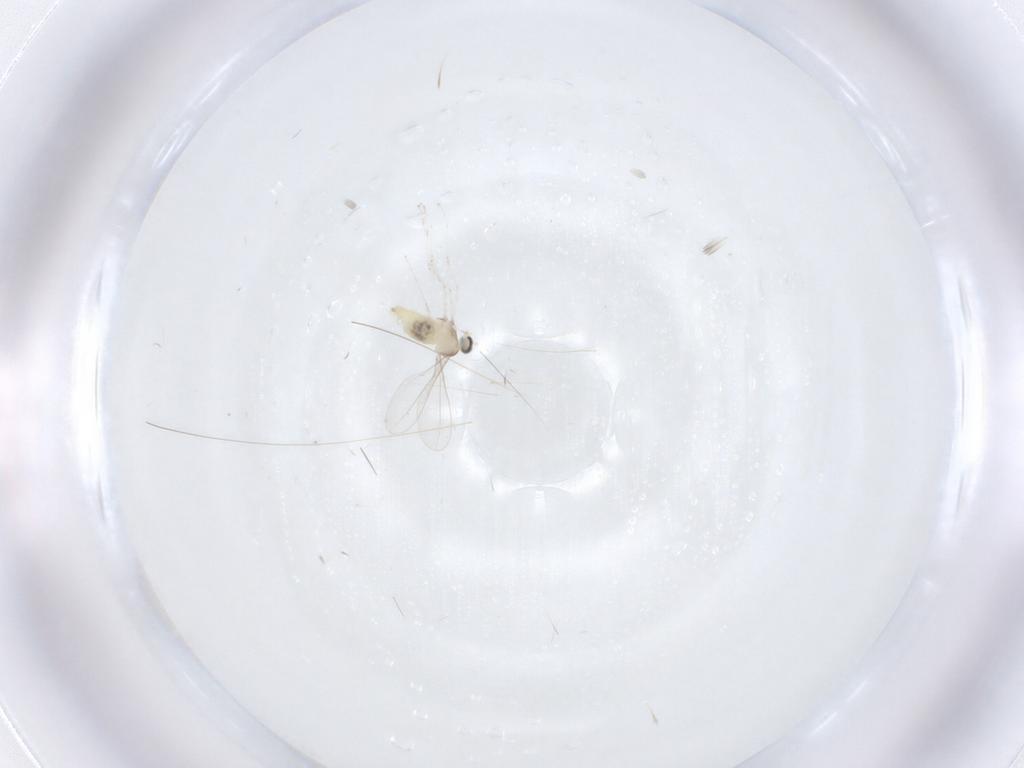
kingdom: Animalia
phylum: Arthropoda
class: Insecta
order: Diptera
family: Cecidomyiidae
